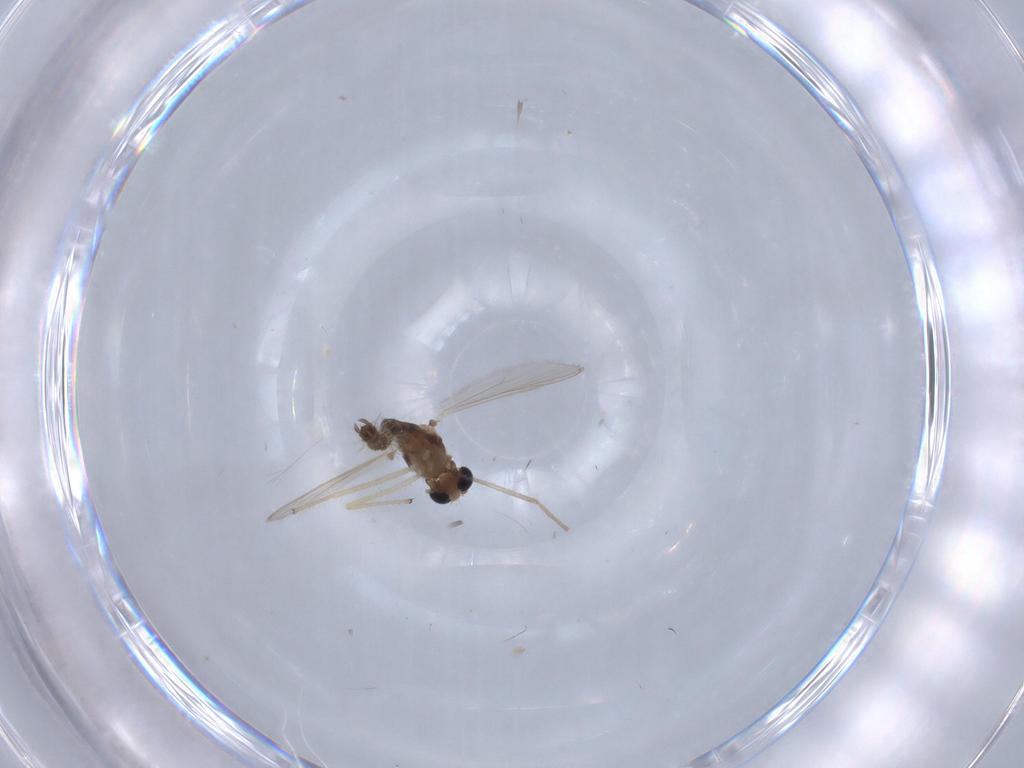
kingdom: Animalia
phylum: Arthropoda
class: Insecta
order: Diptera
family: Chironomidae
